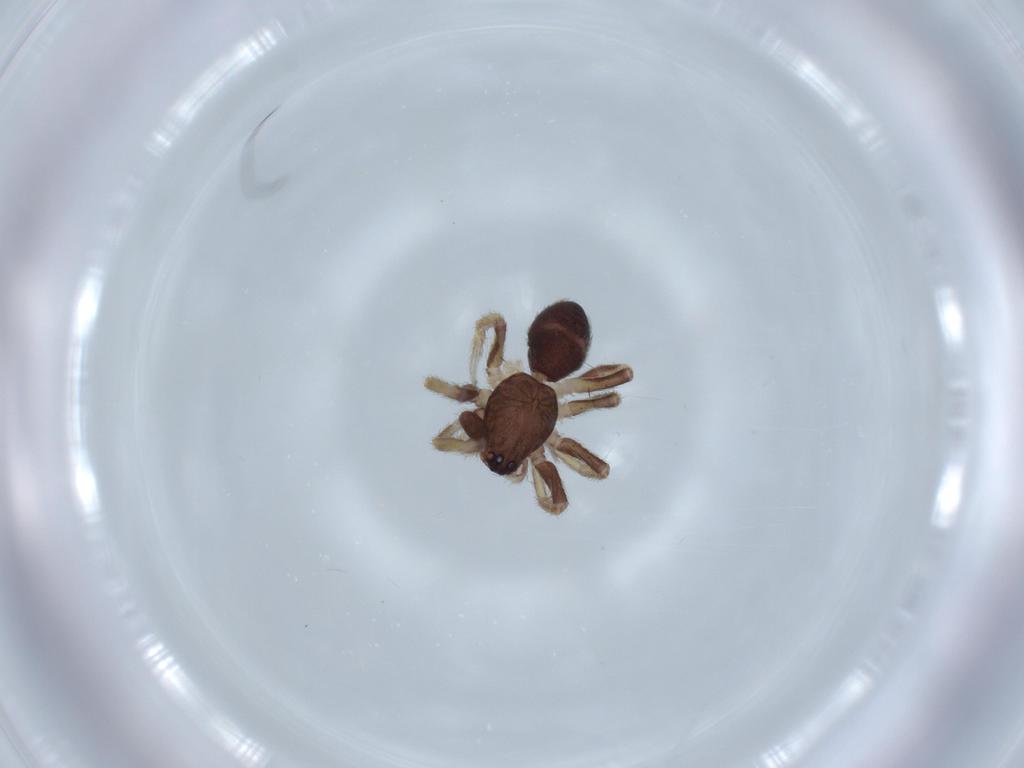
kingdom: Animalia
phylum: Arthropoda
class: Arachnida
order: Araneae
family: Corinnidae
